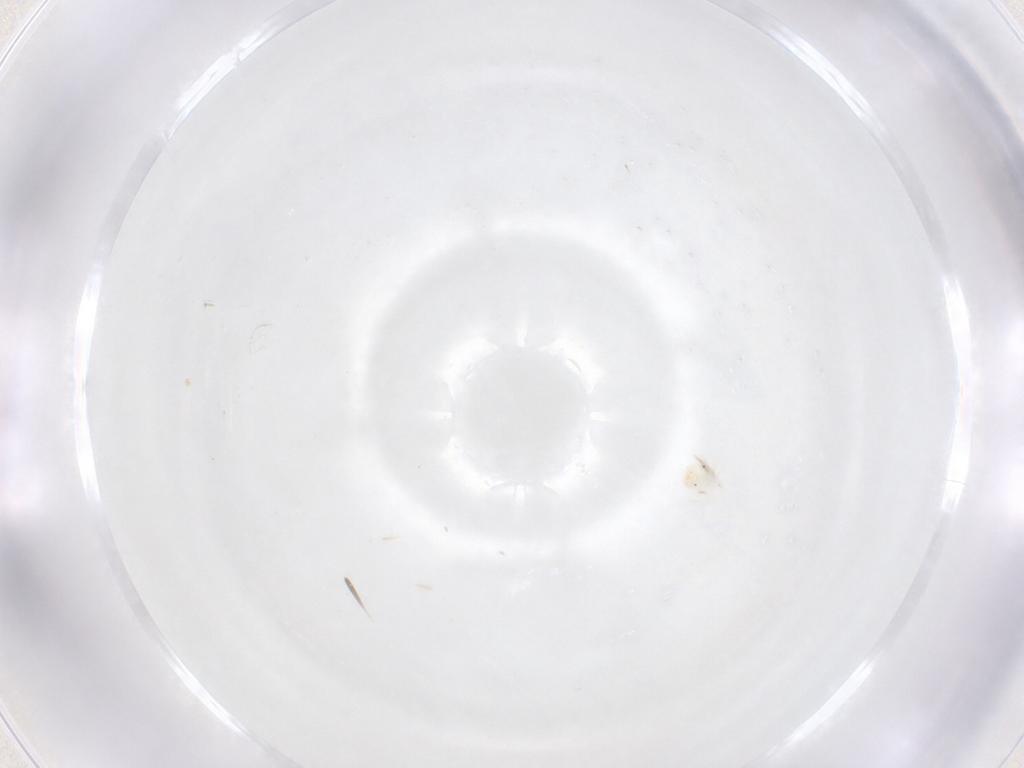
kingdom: Animalia
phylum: Arthropoda
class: Arachnida
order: Trombidiformes
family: Anystidae
